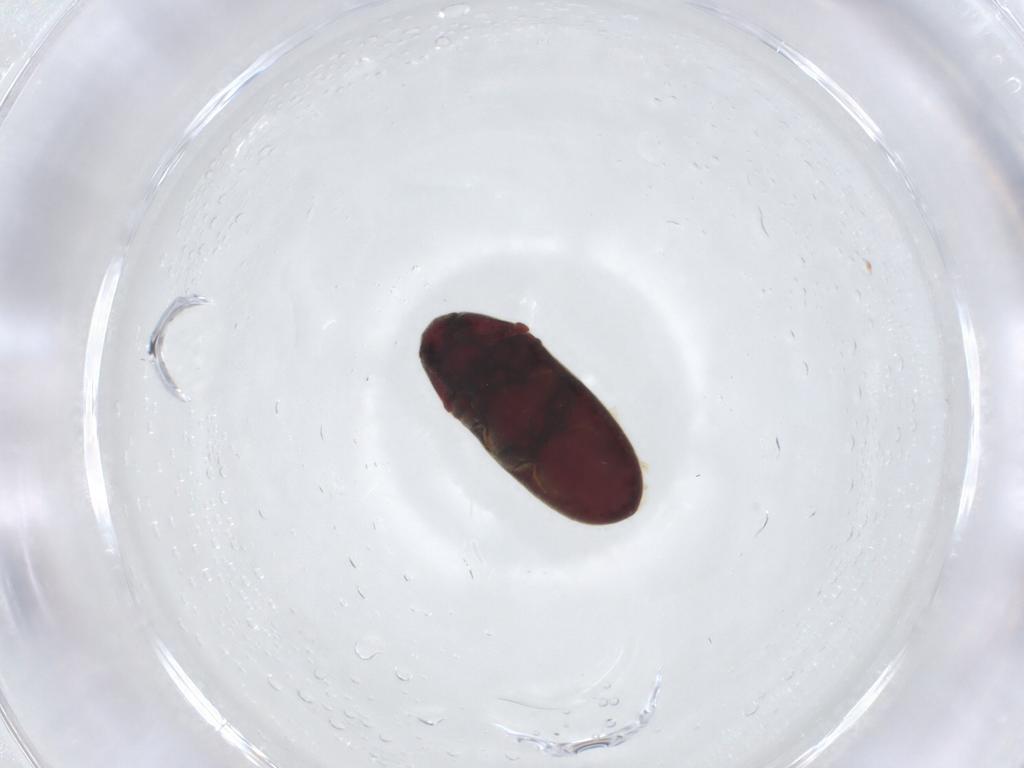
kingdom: Animalia
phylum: Arthropoda
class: Insecta
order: Coleoptera
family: Throscidae
